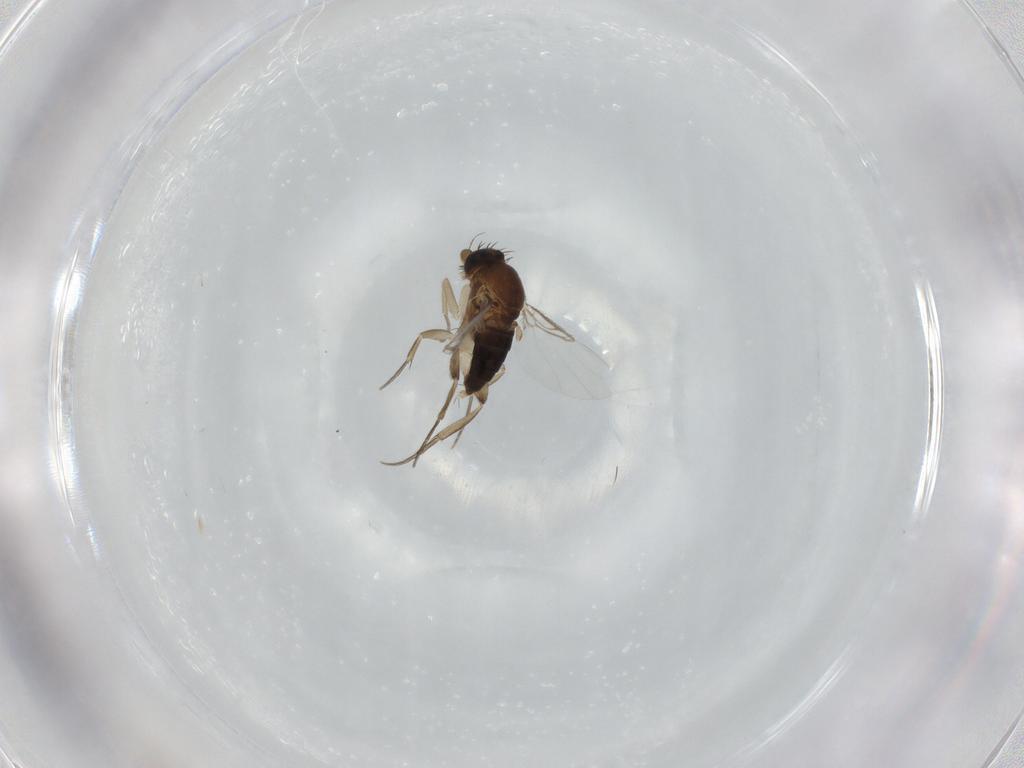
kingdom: Animalia
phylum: Arthropoda
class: Insecta
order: Diptera
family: Phoridae
